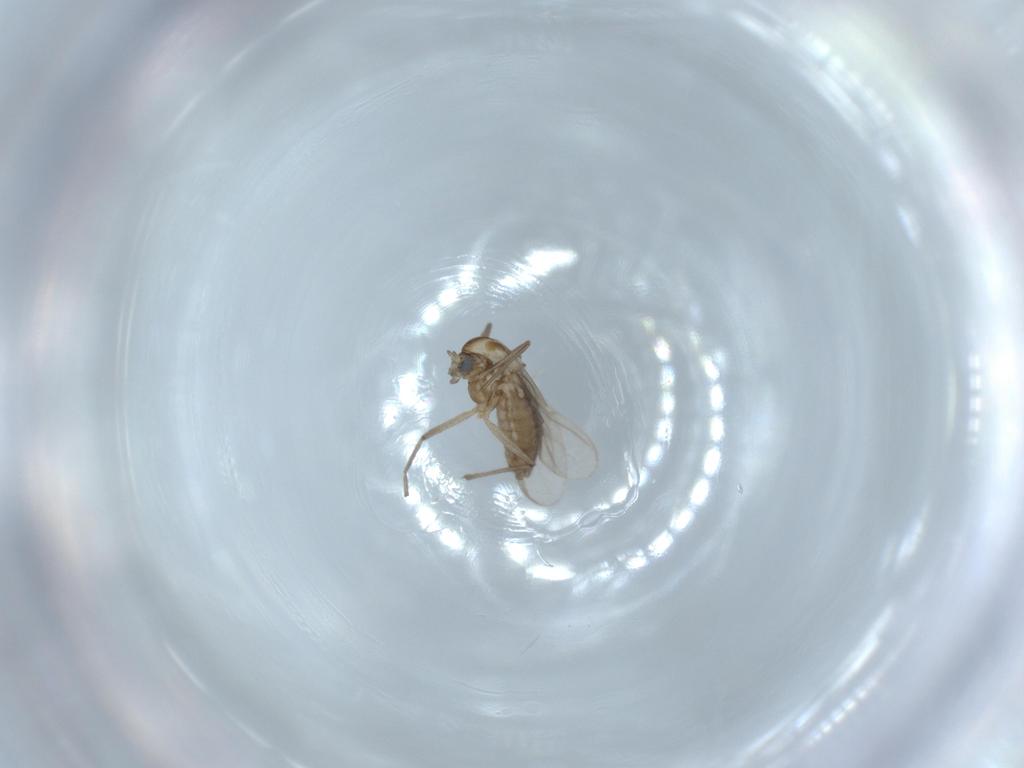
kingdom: Animalia
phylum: Arthropoda
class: Insecta
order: Diptera
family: Chironomidae
